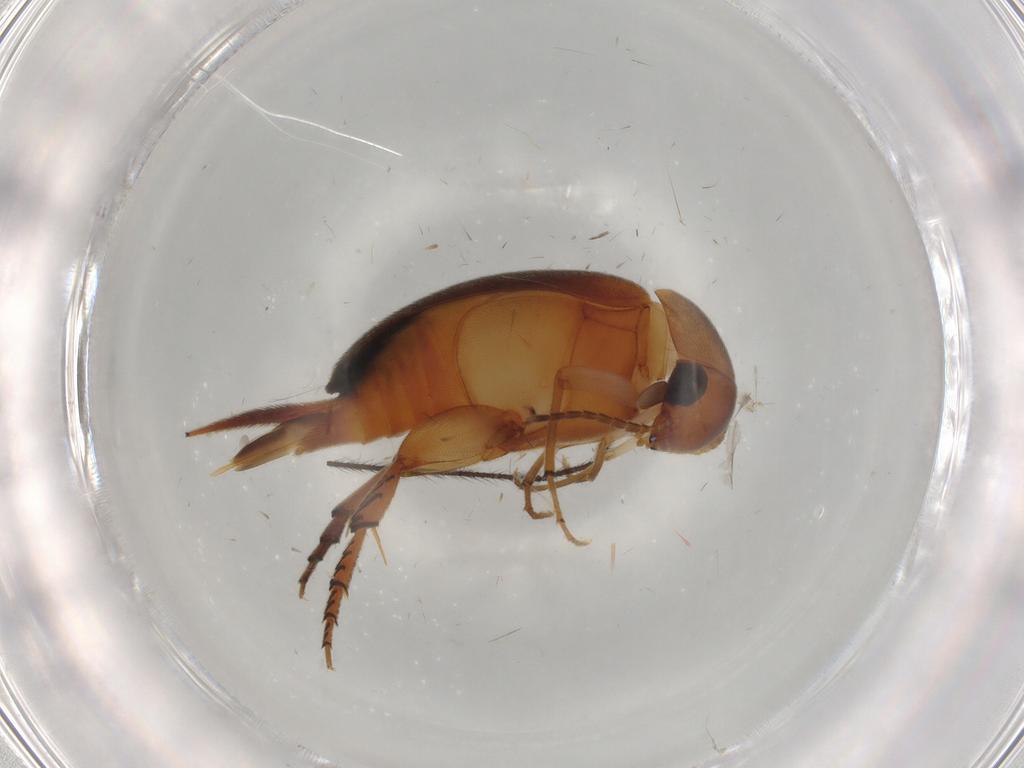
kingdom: Animalia
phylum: Arthropoda
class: Insecta
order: Coleoptera
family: Mordellidae
